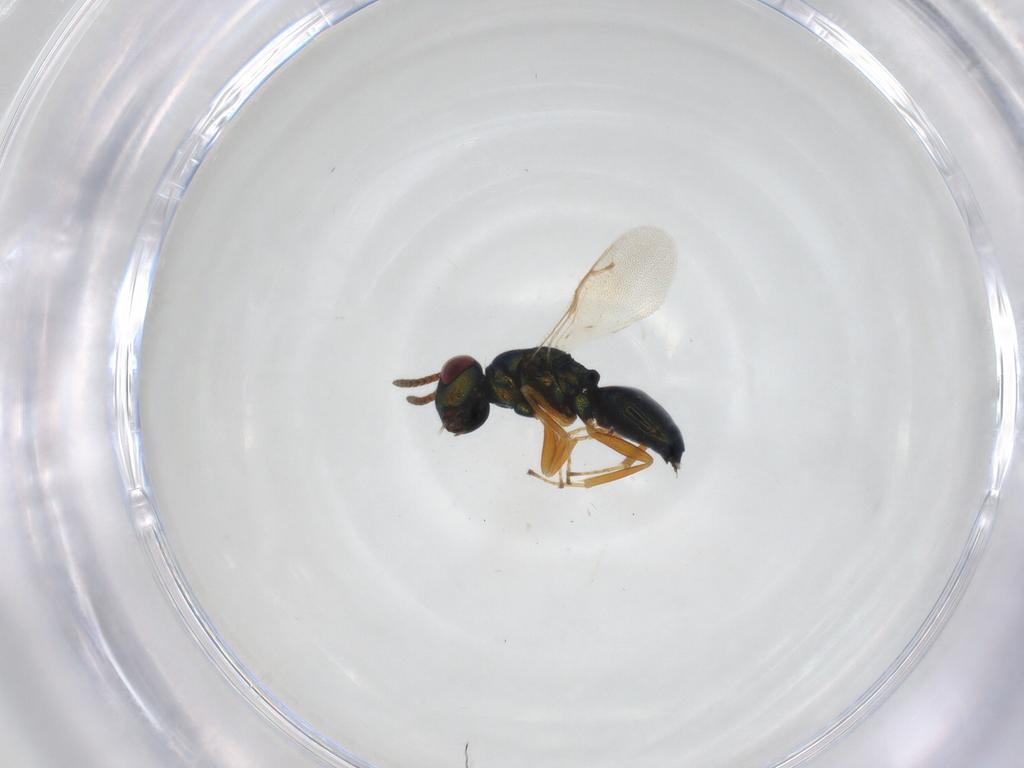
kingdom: Animalia
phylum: Arthropoda
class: Insecta
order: Hymenoptera
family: Pteromalidae
